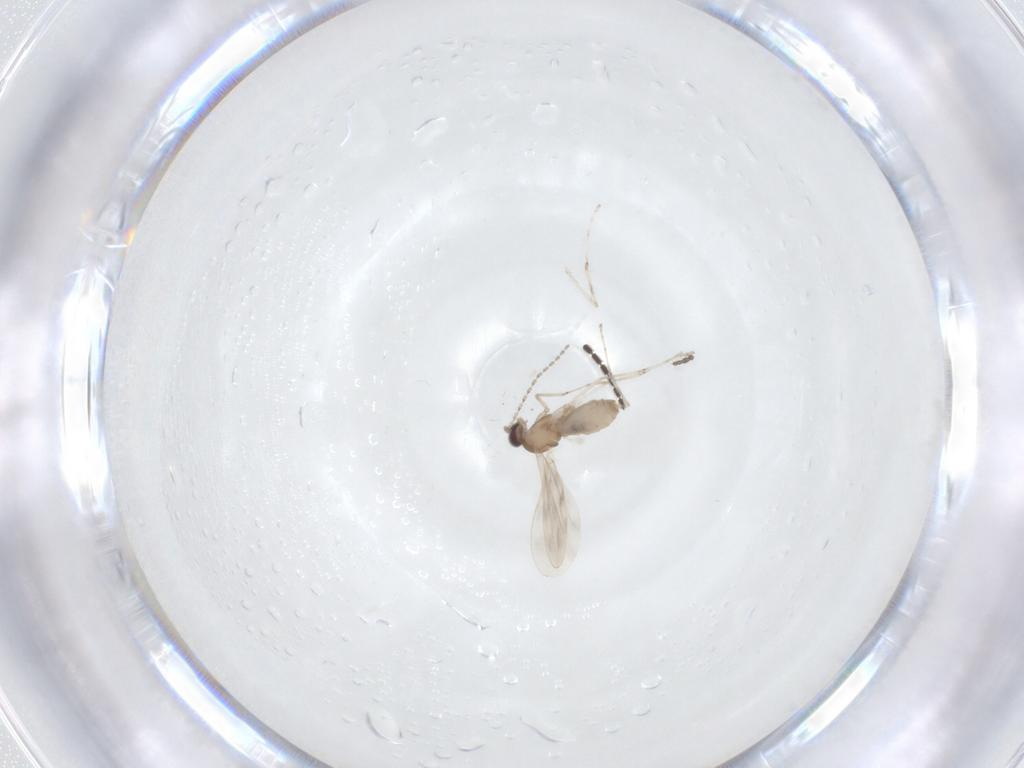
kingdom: Animalia
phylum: Arthropoda
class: Insecta
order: Diptera
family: Cecidomyiidae
